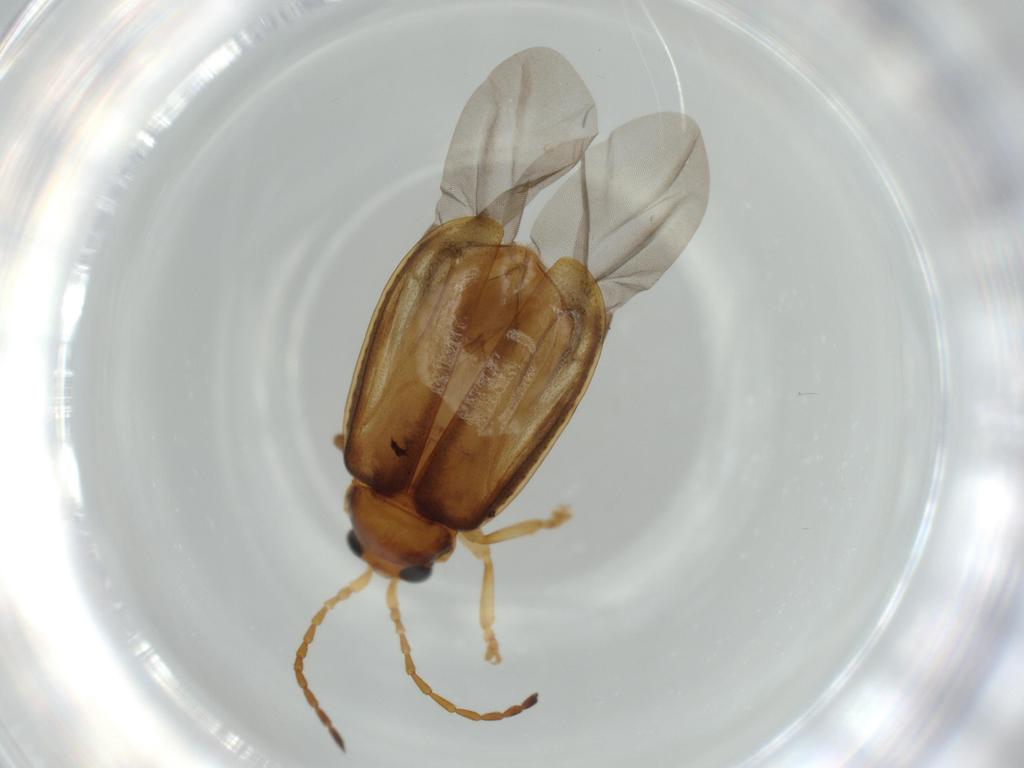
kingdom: Animalia
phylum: Arthropoda
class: Insecta
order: Coleoptera
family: Chrysomelidae
